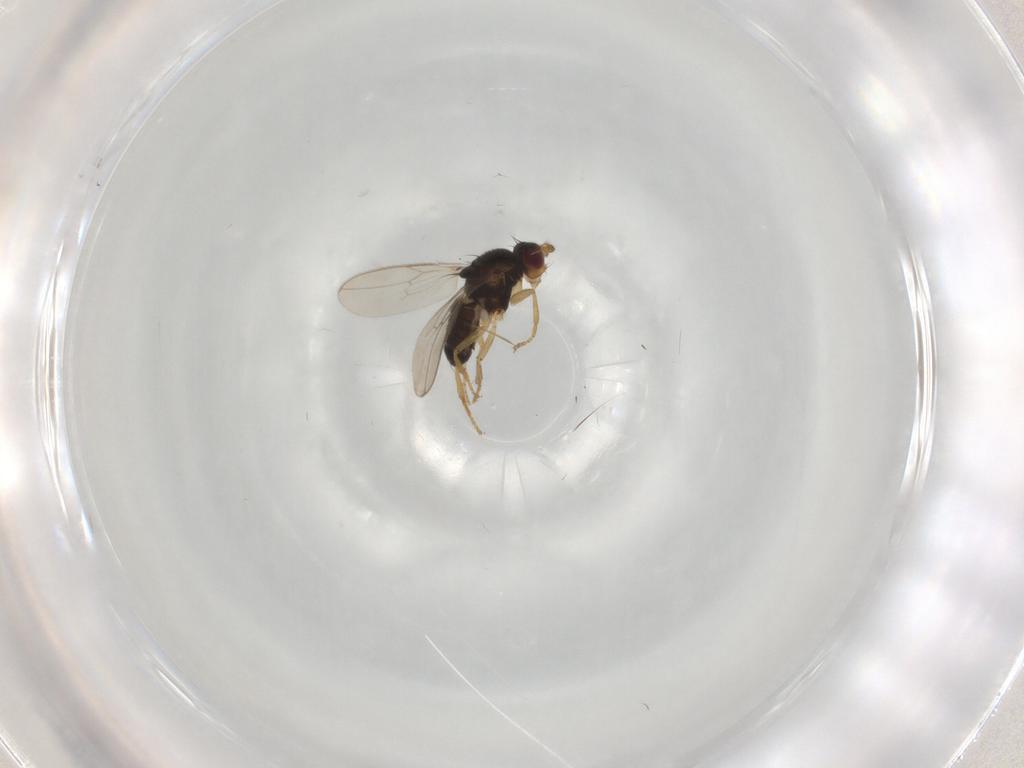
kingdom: Animalia
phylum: Arthropoda
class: Insecta
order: Diptera
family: Sphaeroceridae
